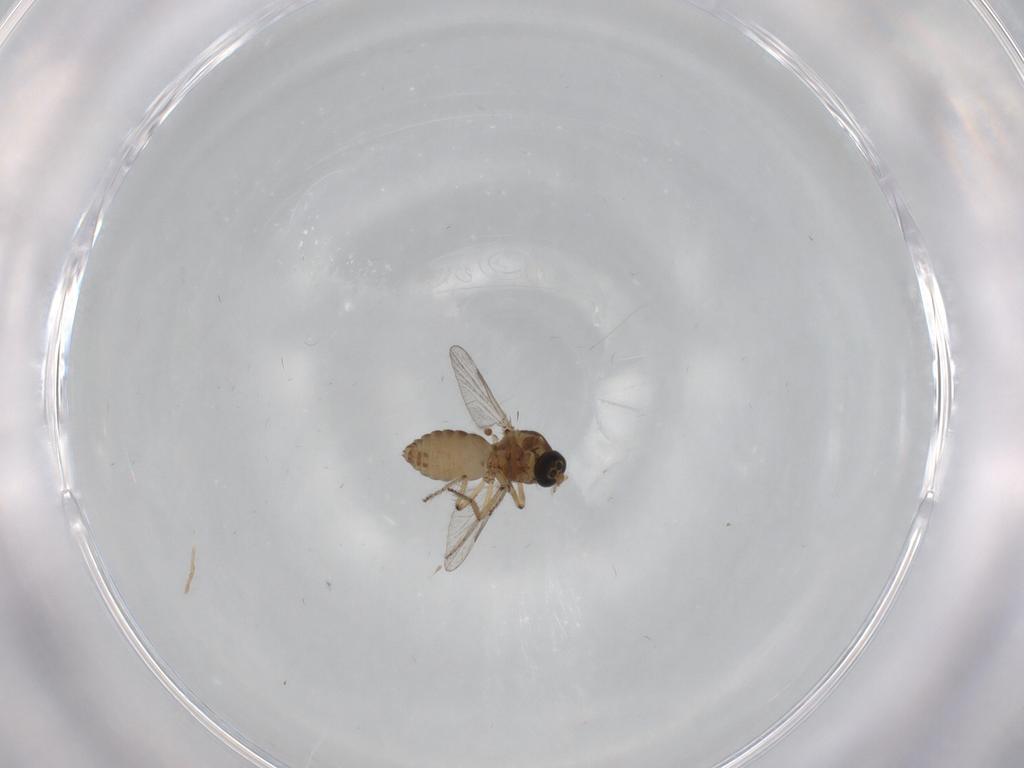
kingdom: Animalia
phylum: Arthropoda
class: Insecta
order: Diptera
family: Ceratopogonidae
